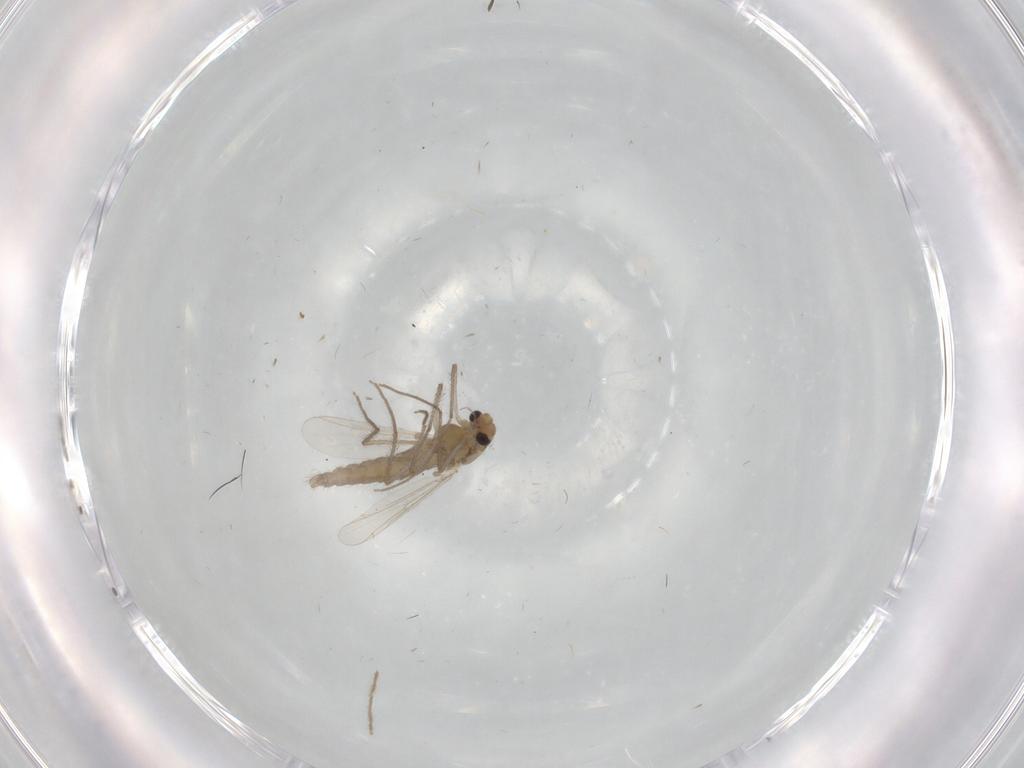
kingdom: Animalia
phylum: Arthropoda
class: Insecta
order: Diptera
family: Chironomidae
